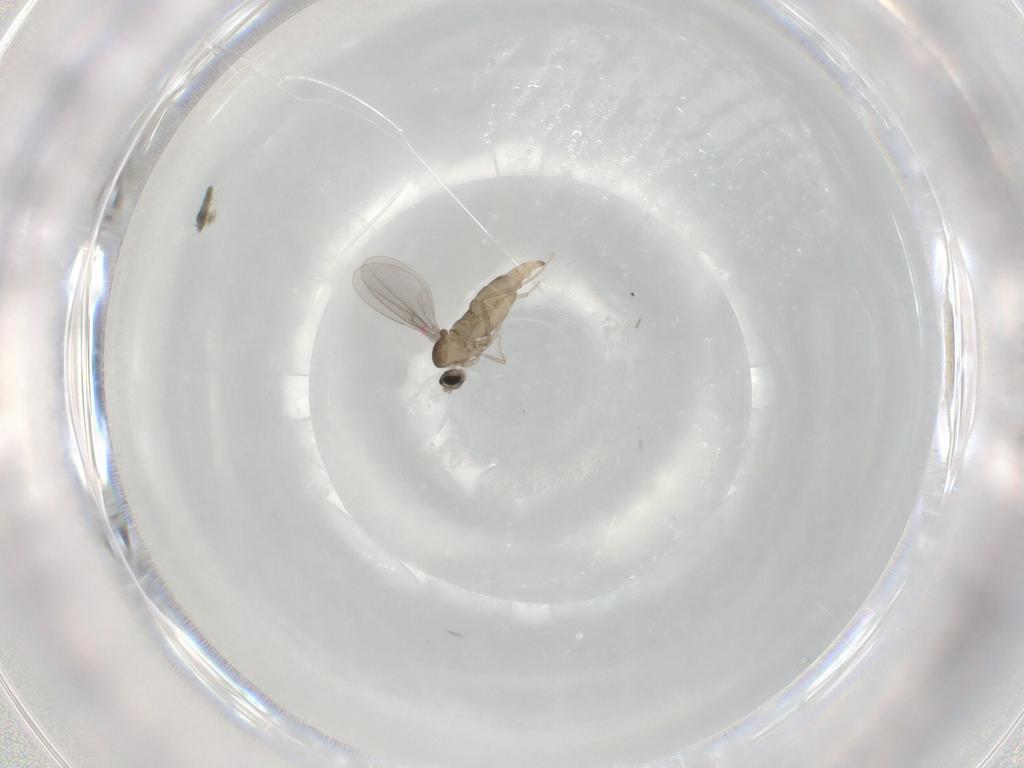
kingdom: Animalia
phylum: Arthropoda
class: Insecta
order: Diptera
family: Cecidomyiidae
